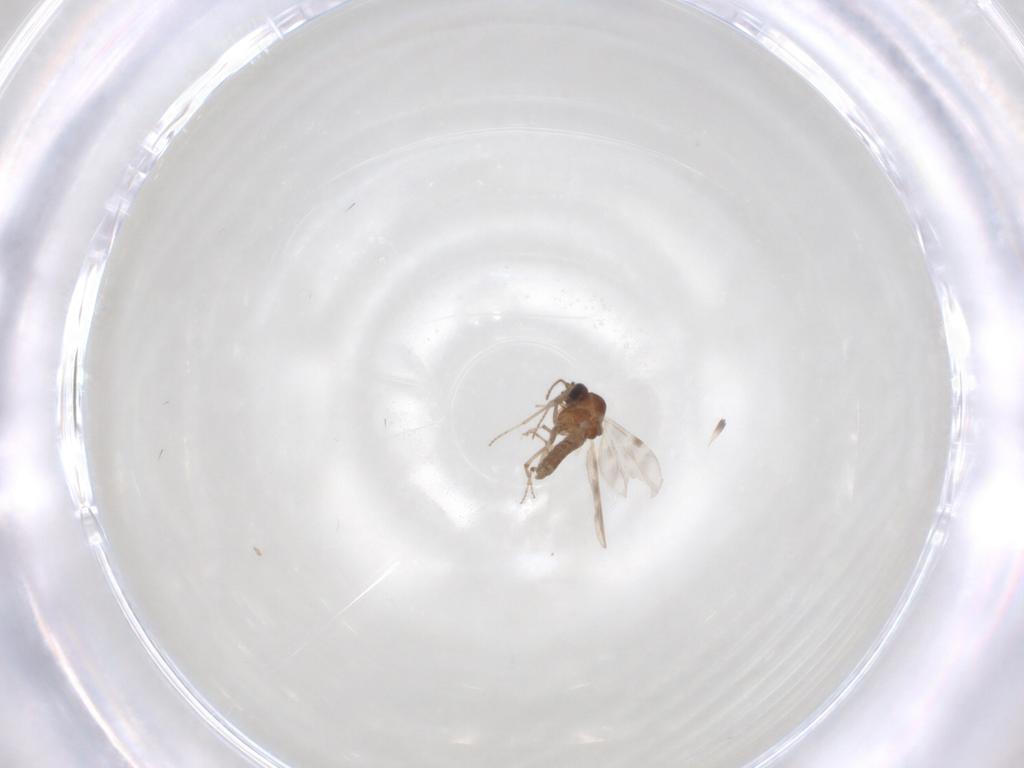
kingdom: Animalia
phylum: Arthropoda
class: Insecta
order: Diptera
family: Ceratopogonidae
